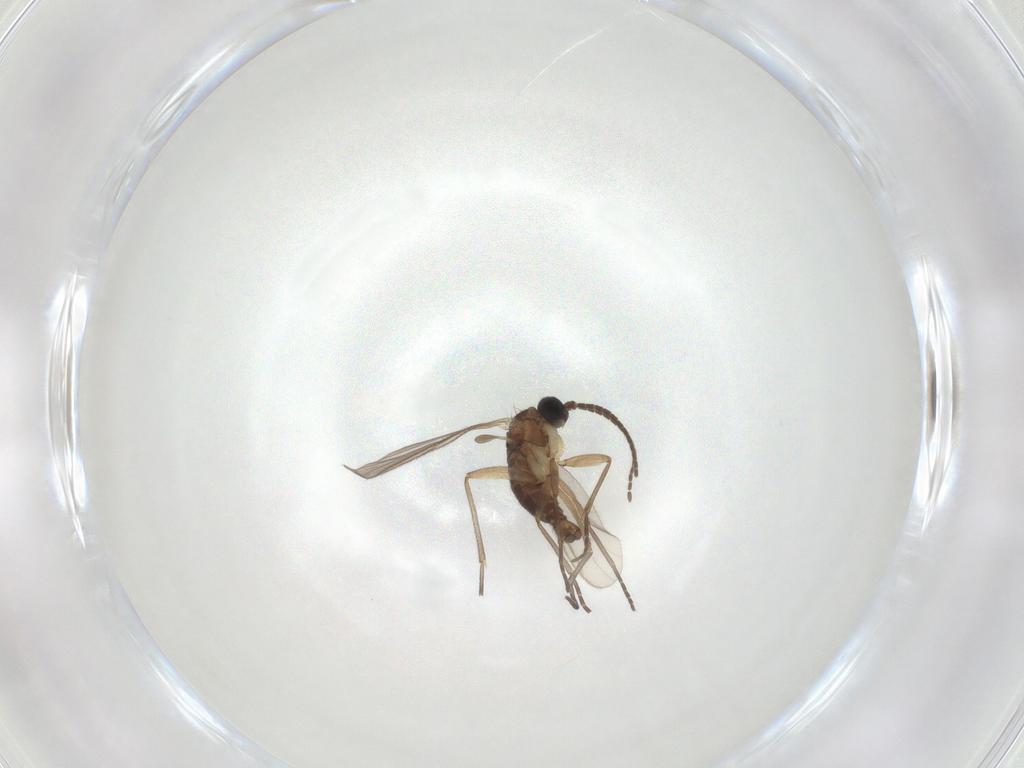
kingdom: Animalia
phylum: Arthropoda
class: Insecta
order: Diptera
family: Sciaridae
